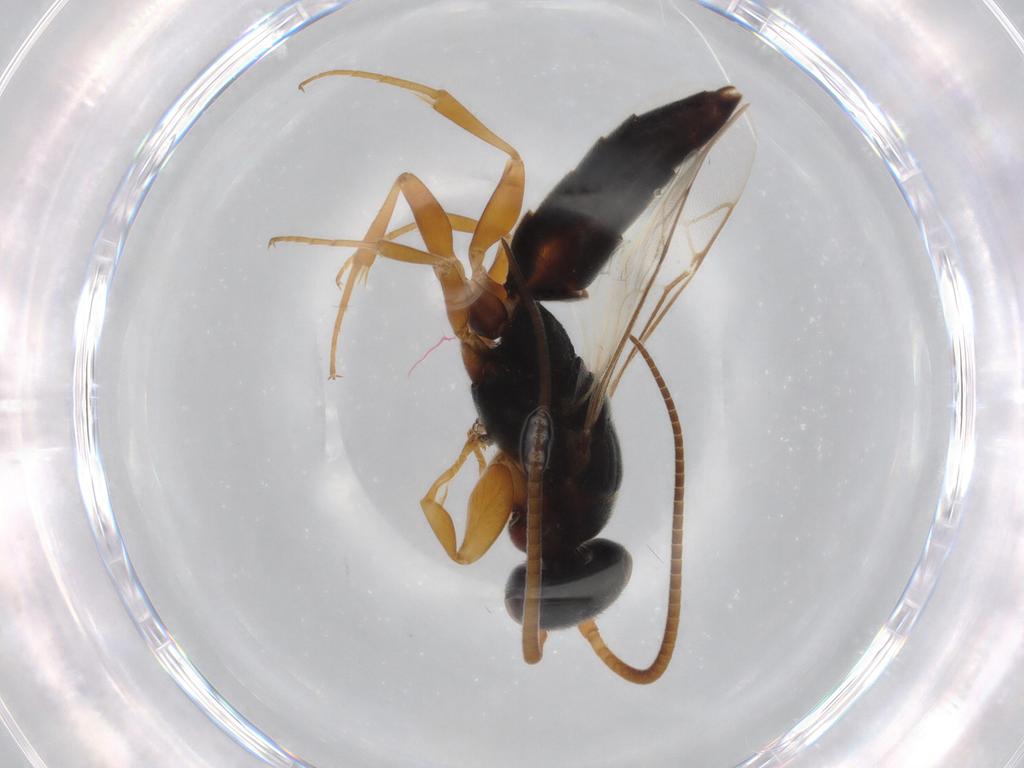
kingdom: Animalia
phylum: Arthropoda
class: Insecta
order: Hymenoptera
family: Sclerogibbidae
